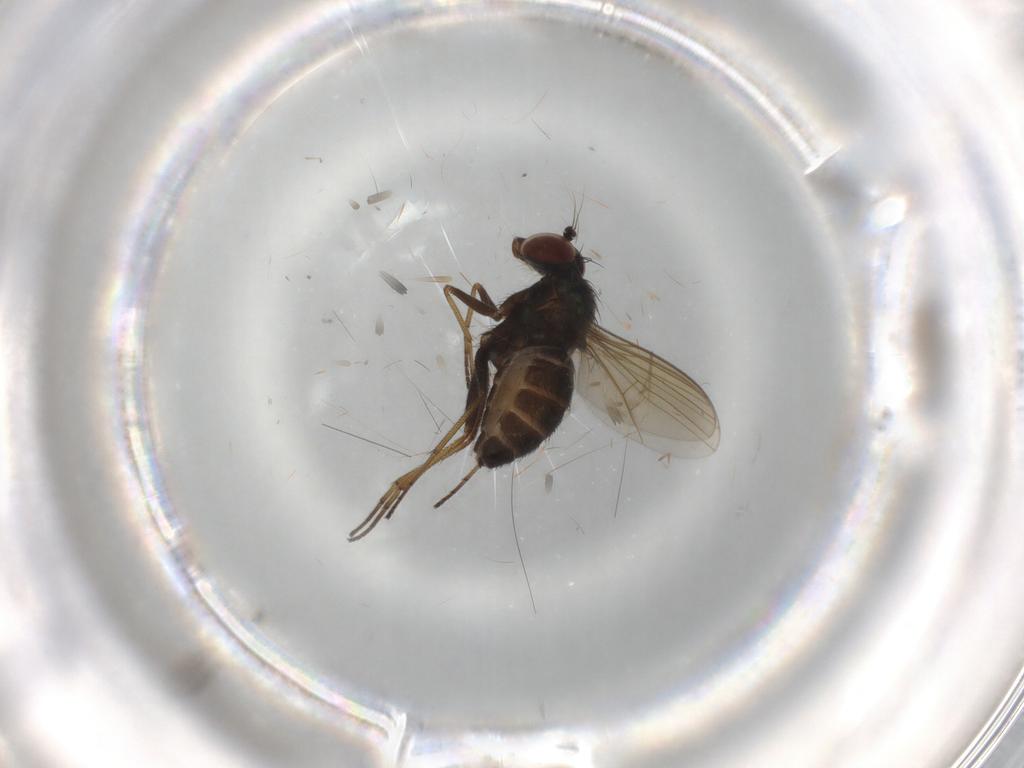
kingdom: Animalia
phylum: Arthropoda
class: Insecta
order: Diptera
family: Dolichopodidae
